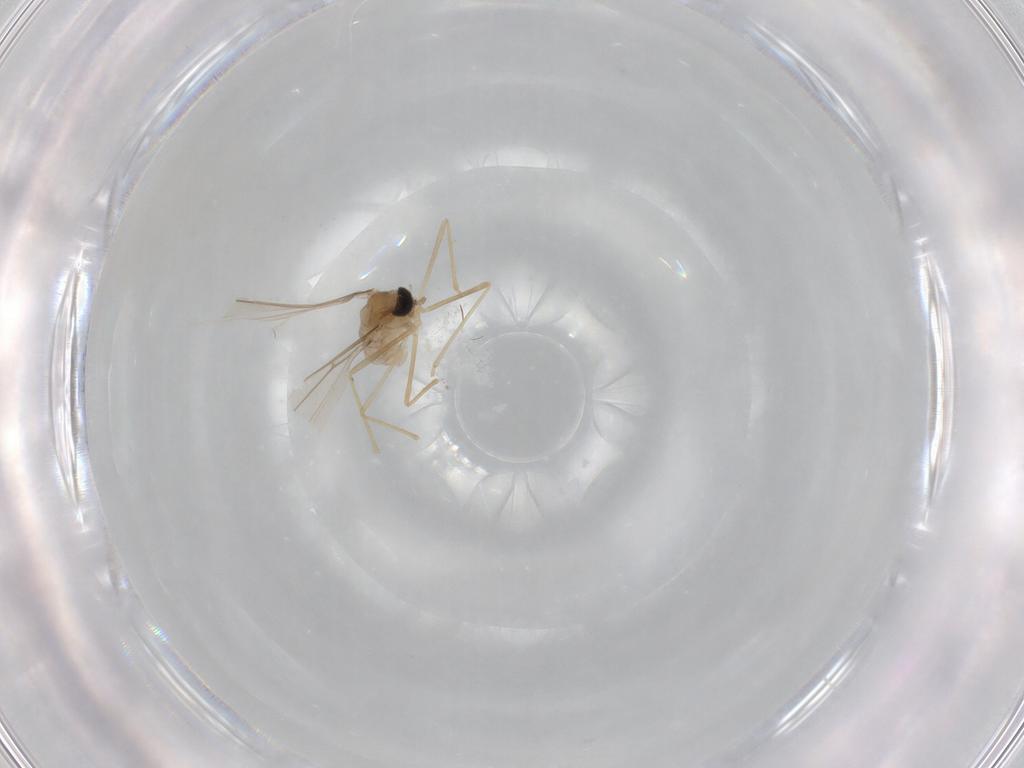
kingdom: Animalia
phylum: Arthropoda
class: Insecta
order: Diptera
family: Cecidomyiidae
